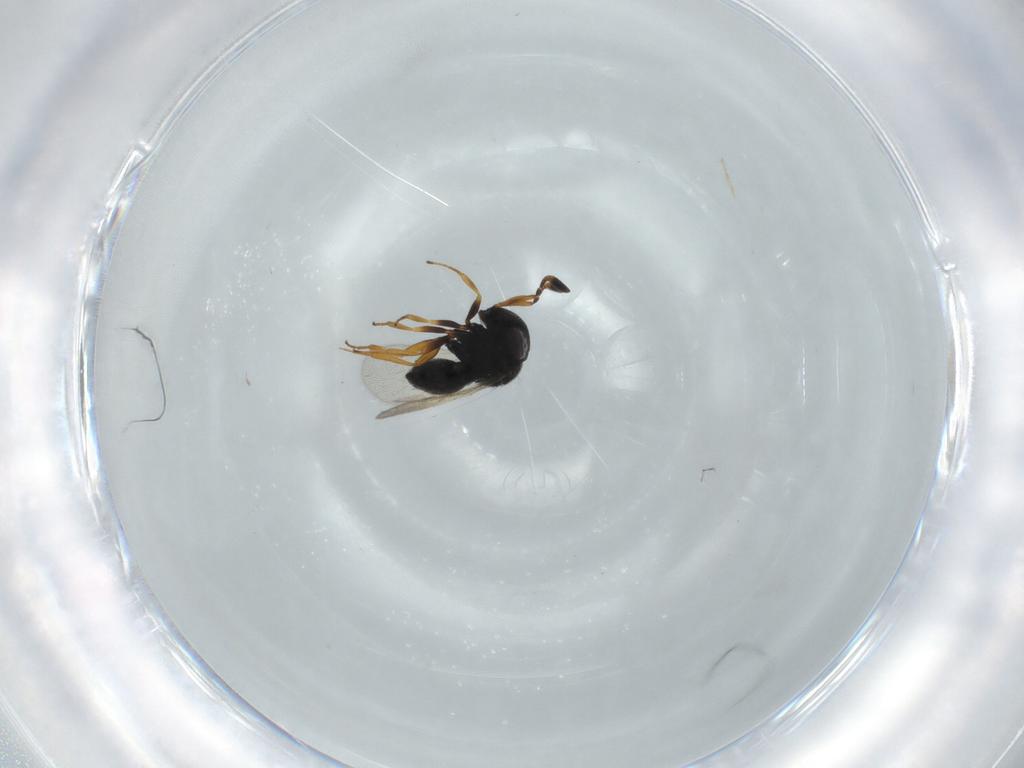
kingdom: Animalia
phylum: Arthropoda
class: Insecta
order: Hymenoptera
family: Scelionidae
